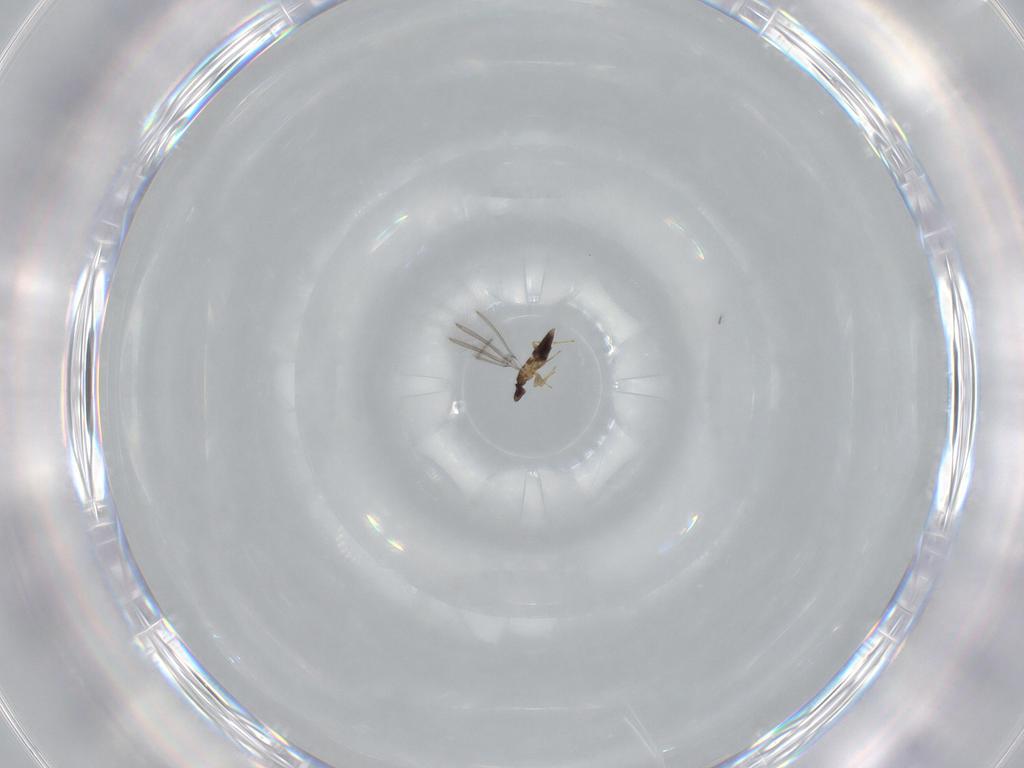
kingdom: Animalia
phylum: Arthropoda
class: Insecta
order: Hymenoptera
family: Mymaridae
